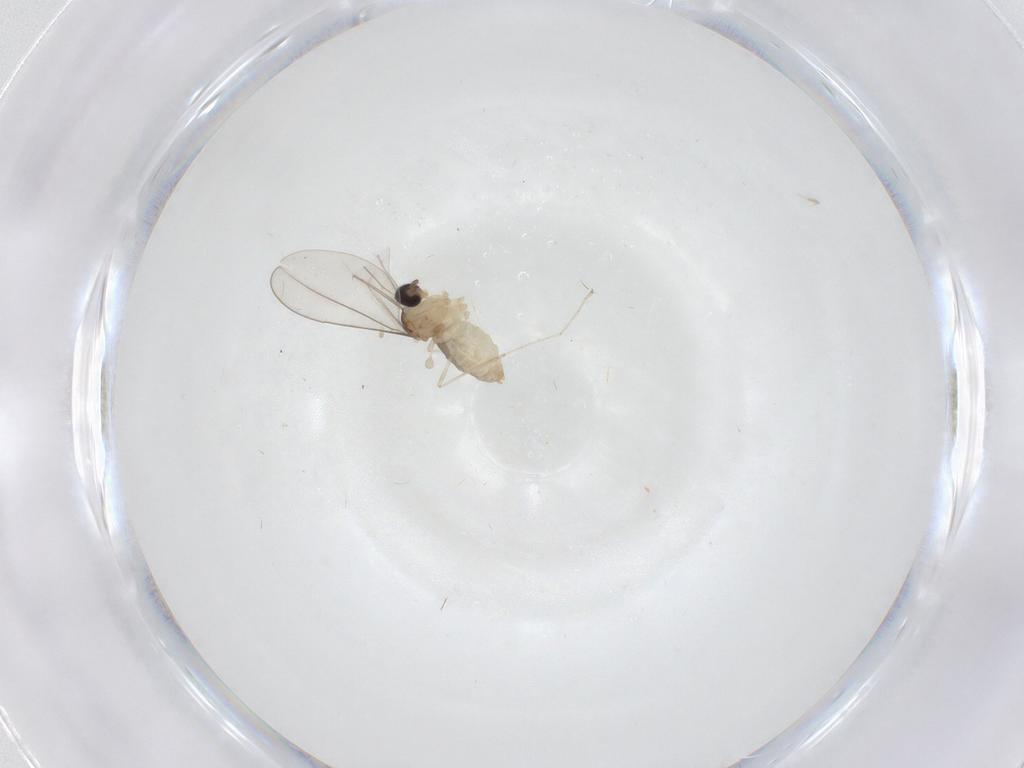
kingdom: Animalia
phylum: Arthropoda
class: Insecta
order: Diptera
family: Cecidomyiidae
